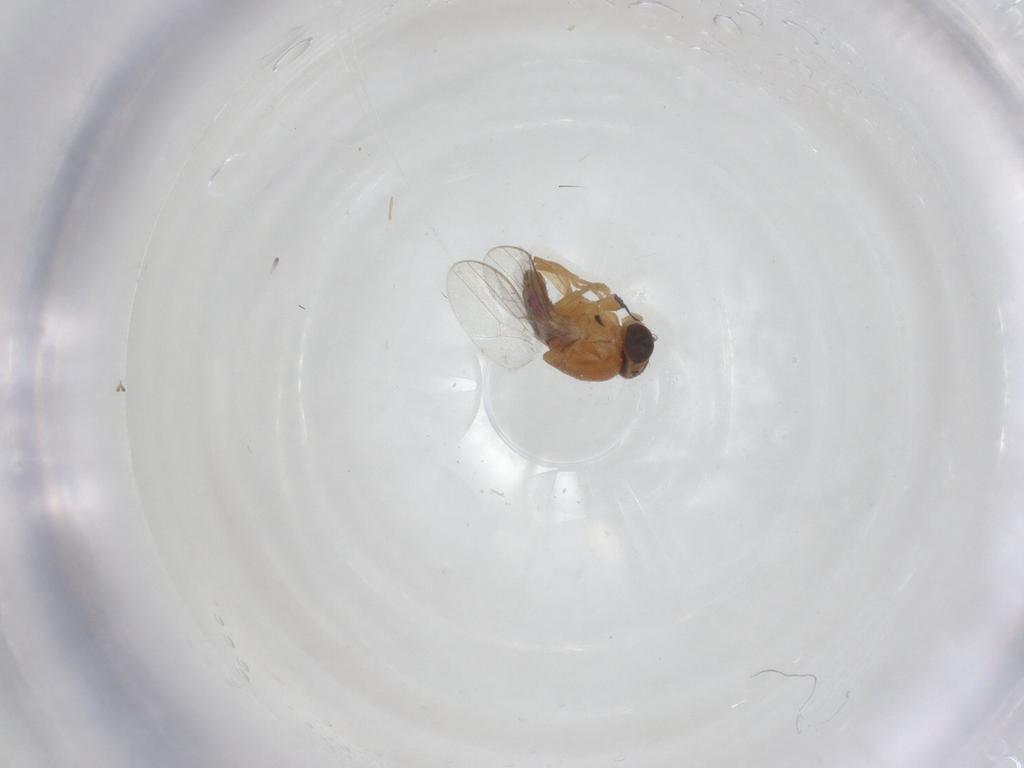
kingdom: Animalia
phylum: Arthropoda
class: Insecta
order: Diptera
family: Chloropidae
